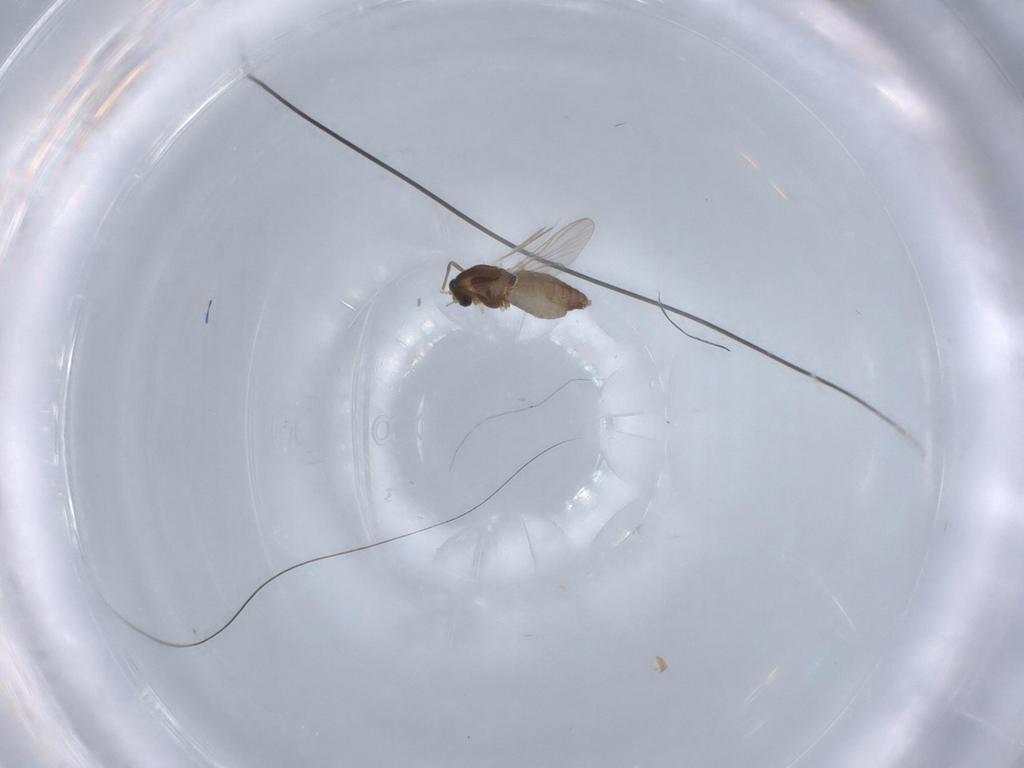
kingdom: Animalia
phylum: Arthropoda
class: Insecta
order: Diptera
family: Chironomidae
